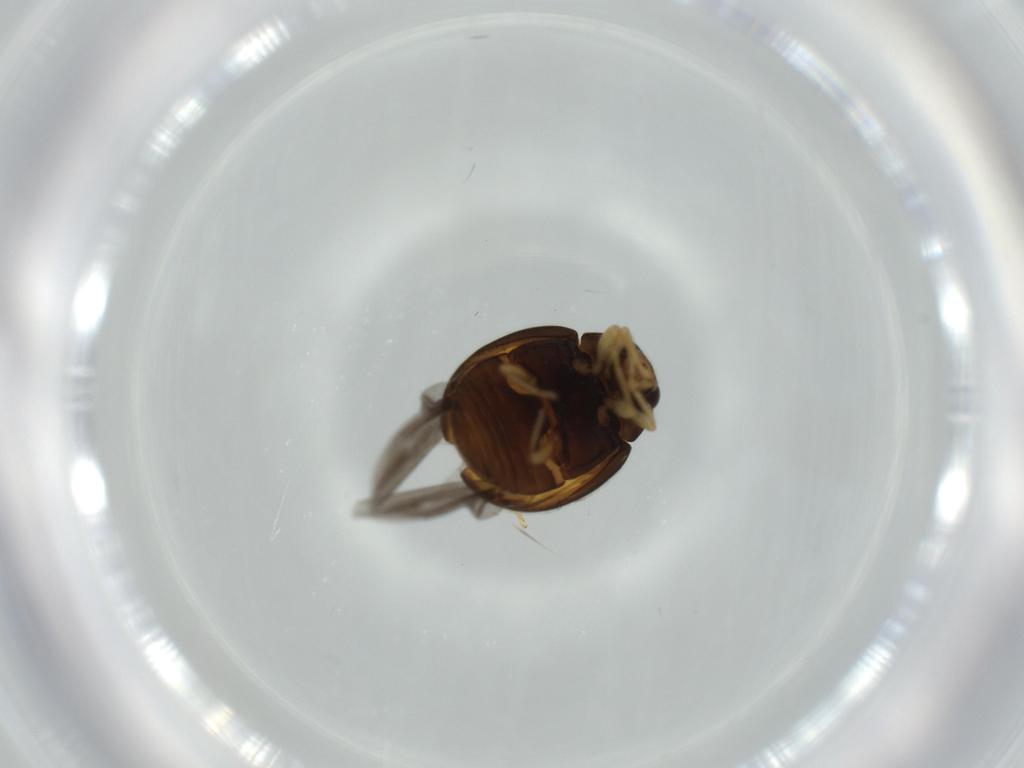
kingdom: Animalia
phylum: Arthropoda
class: Insecta
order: Coleoptera
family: Coccinellidae
